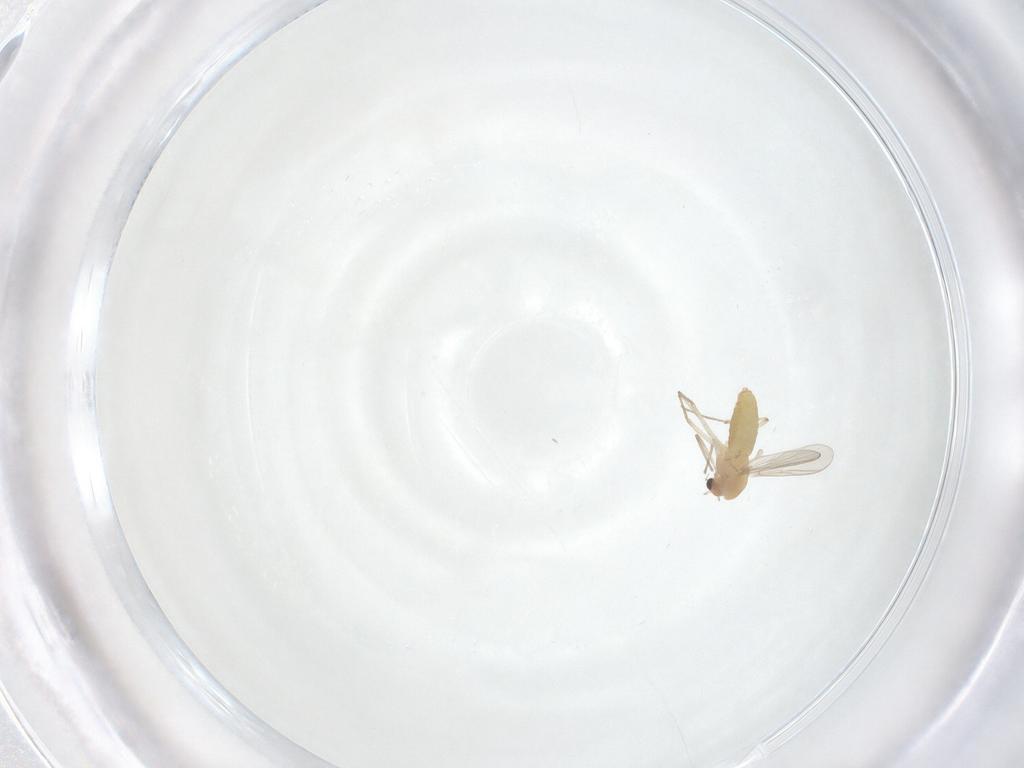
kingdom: Animalia
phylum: Arthropoda
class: Insecta
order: Diptera
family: Chironomidae
